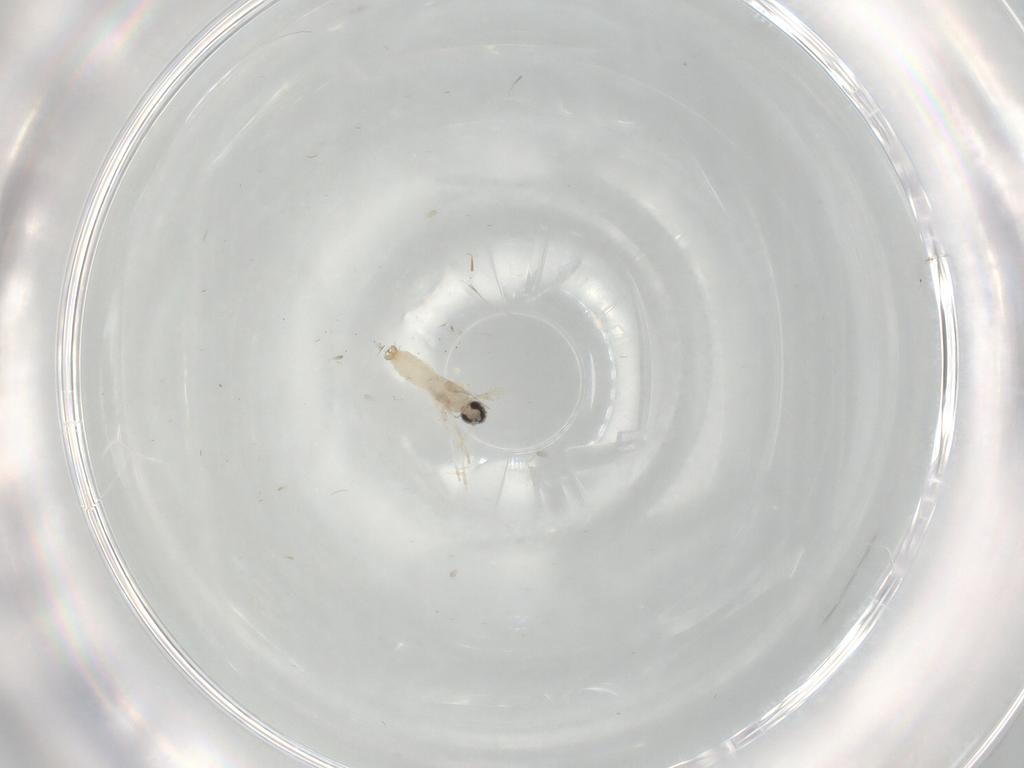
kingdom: Animalia
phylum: Arthropoda
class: Insecta
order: Diptera
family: Cecidomyiidae
